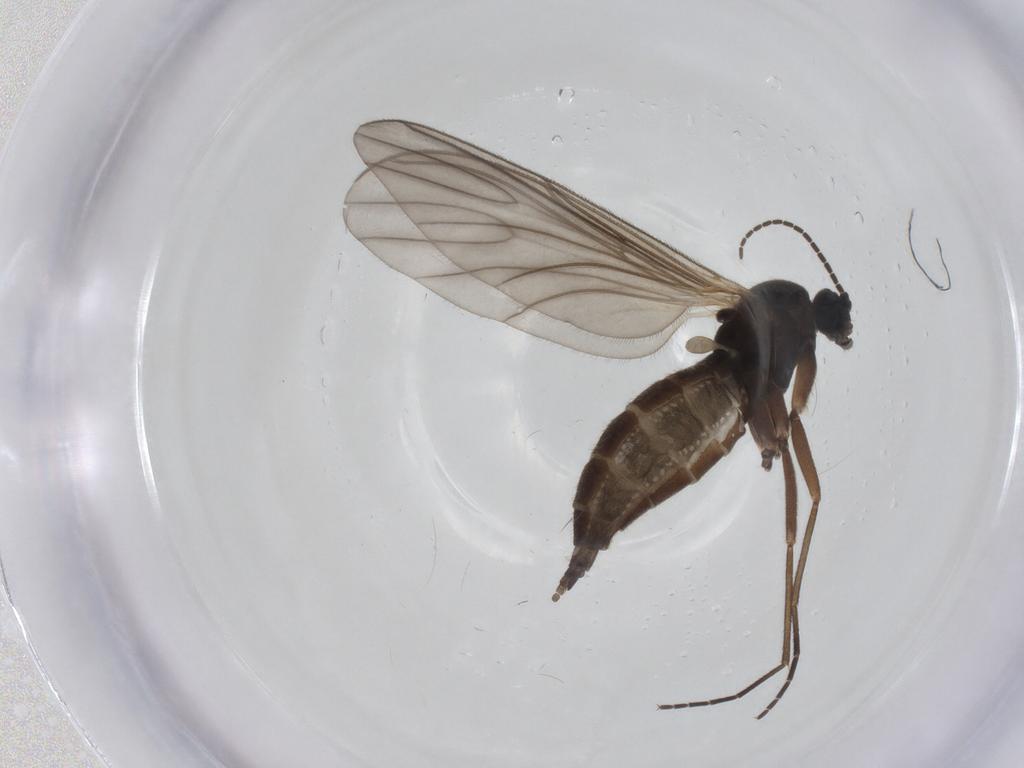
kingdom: Animalia
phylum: Arthropoda
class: Insecta
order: Diptera
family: Sciaridae
